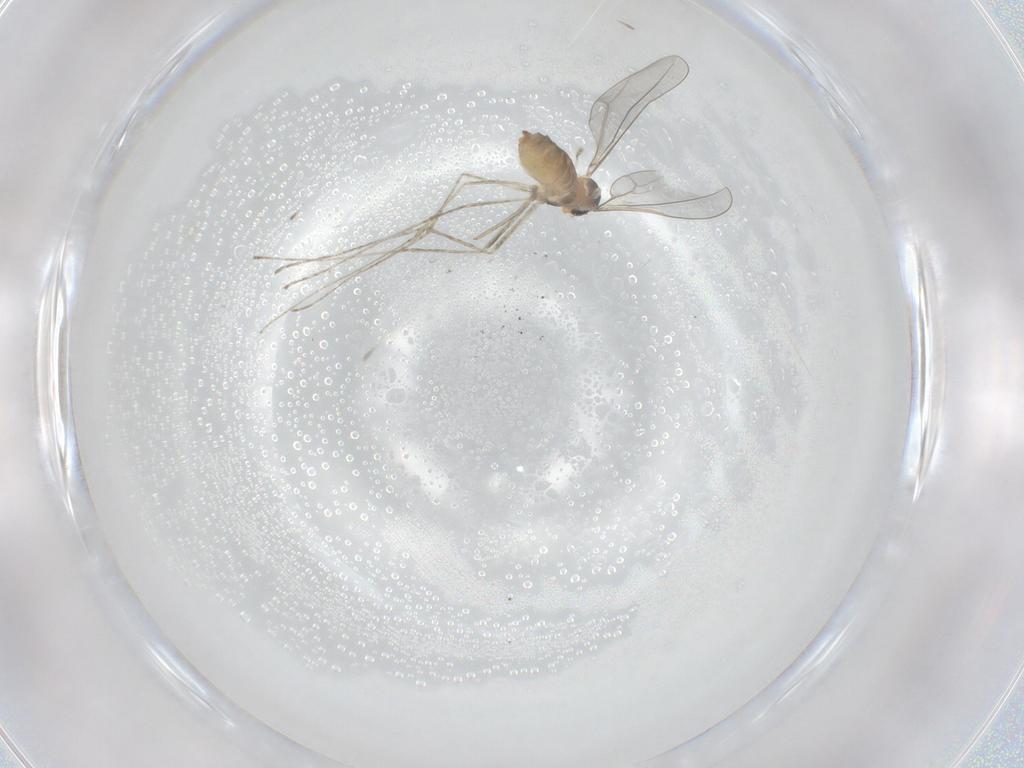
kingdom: Animalia
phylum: Arthropoda
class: Insecta
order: Diptera
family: Cecidomyiidae
